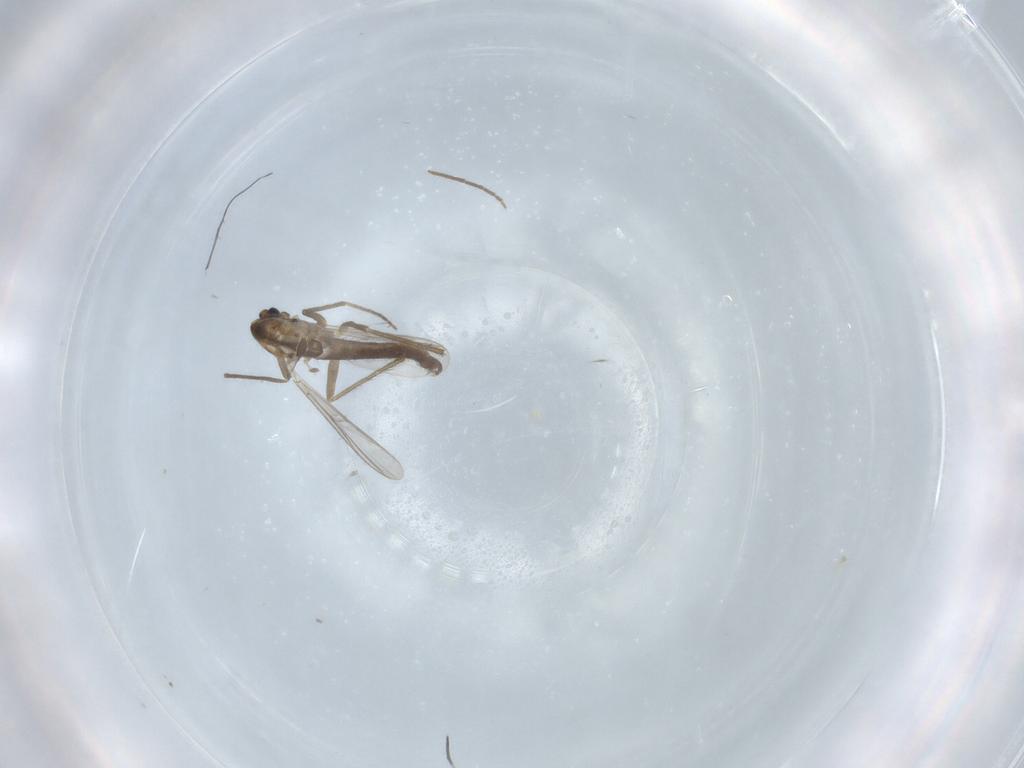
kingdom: Animalia
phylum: Arthropoda
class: Insecta
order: Diptera
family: Chironomidae
